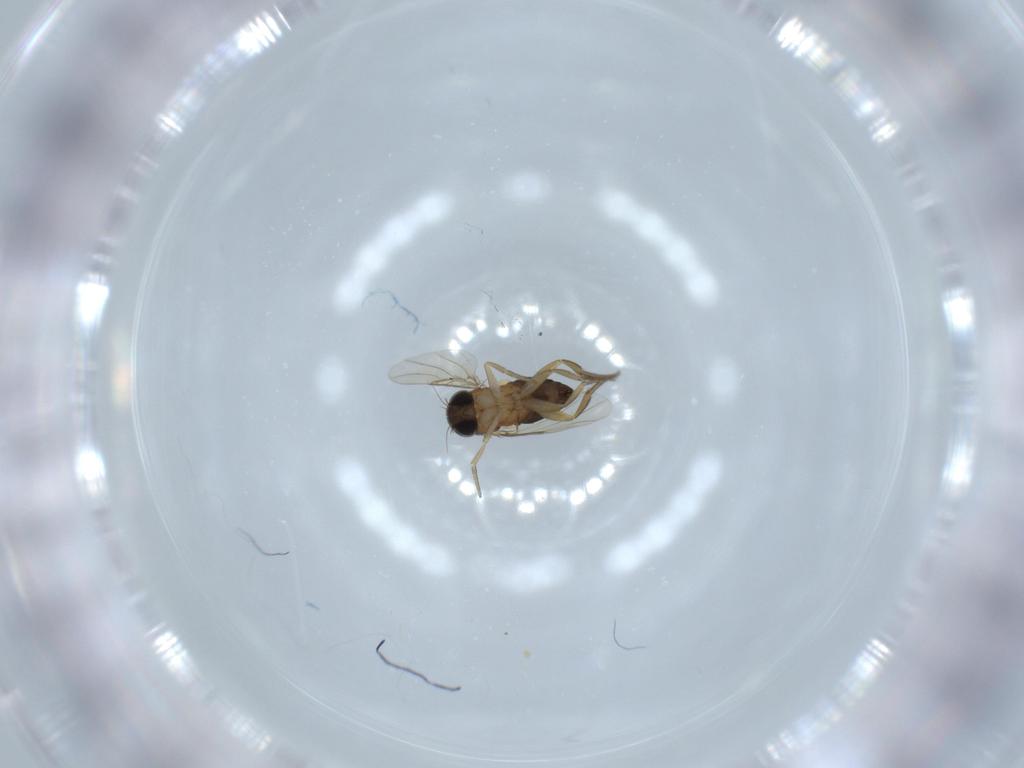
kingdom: Animalia
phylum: Arthropoda
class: Insecta
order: Diptera
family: Phoridae
